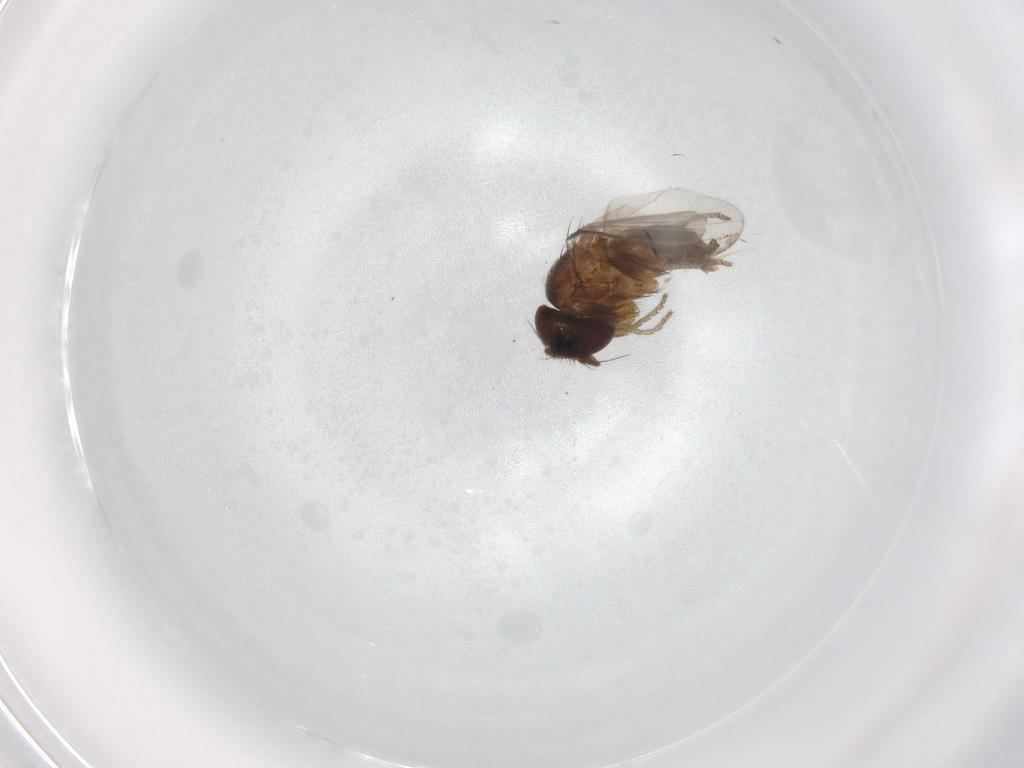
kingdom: Animalia
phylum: Arthropoda
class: Insecta
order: Diptera
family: Milichiidae
